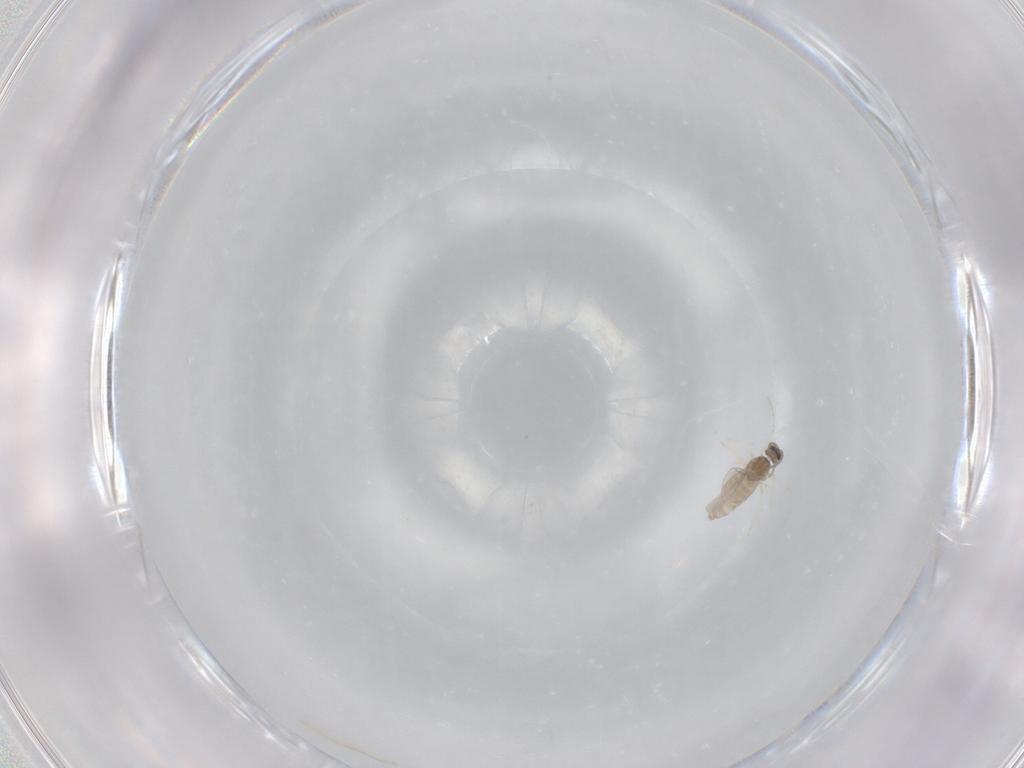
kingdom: Animalia
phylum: Arthropoda
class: Insecta
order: Diptera
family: Cecidomyiidae
